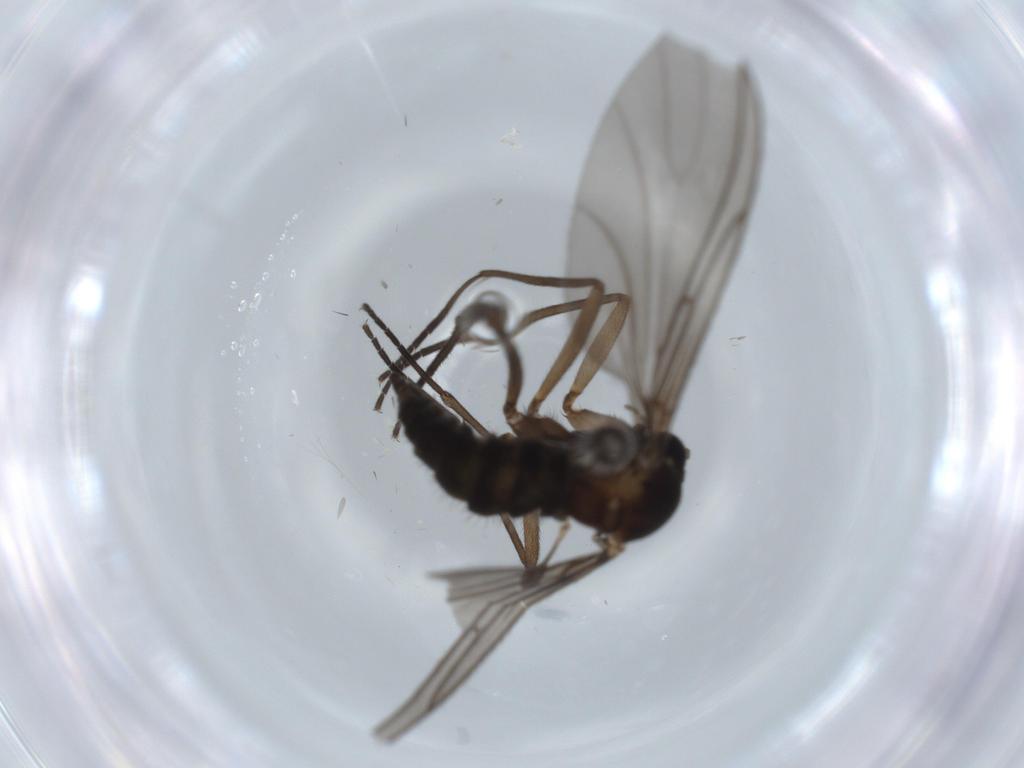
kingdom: Animalia
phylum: Arthropoda
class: Insecta
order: Diptera
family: Sciaridae
